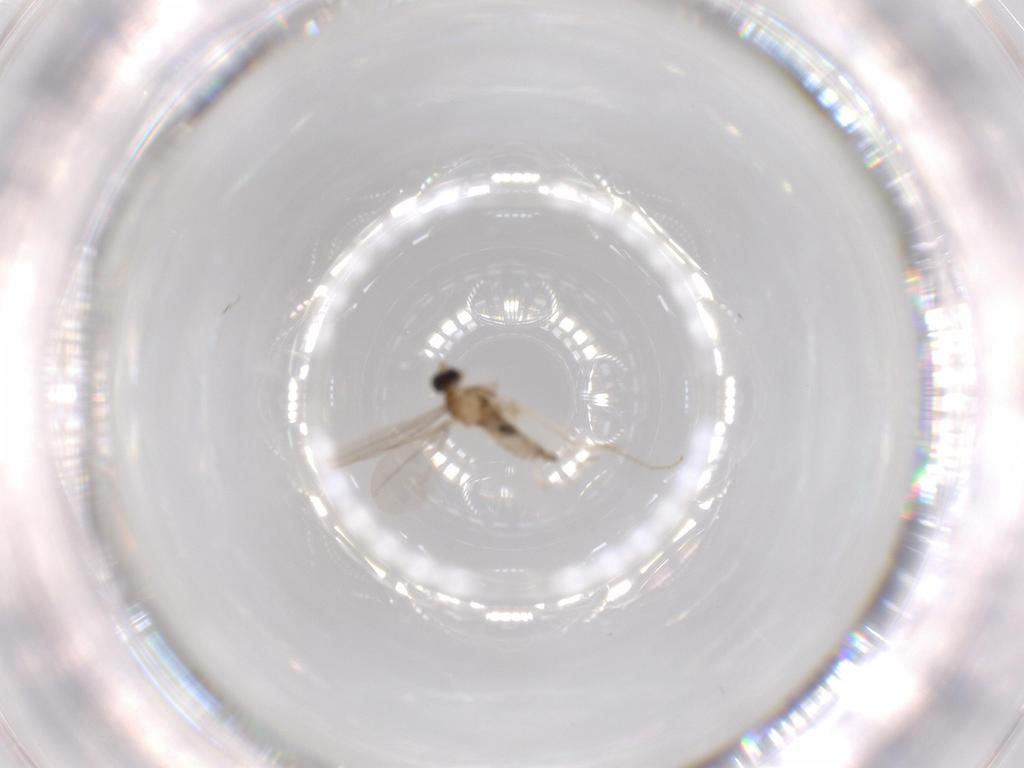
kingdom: Animalia
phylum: Arthropoda
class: Insecta
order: Diptera
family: Cecidomyiidae
